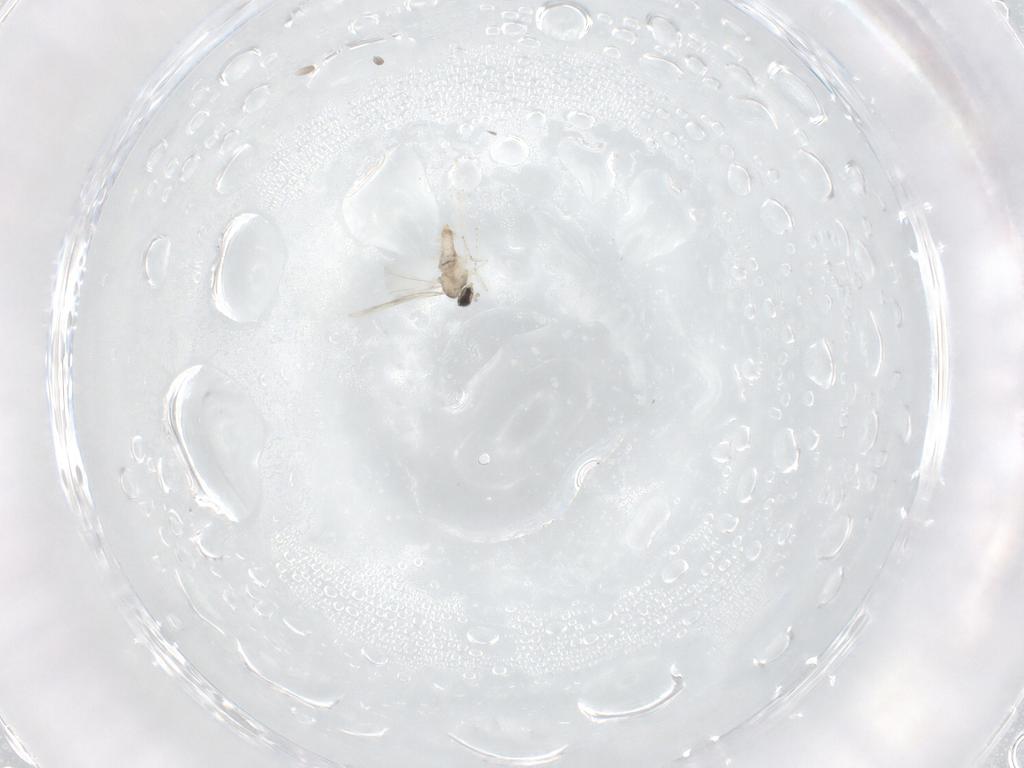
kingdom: Animalia
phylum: Arthropoda
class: Insecta
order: Diptera
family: Cecidomyiidae
